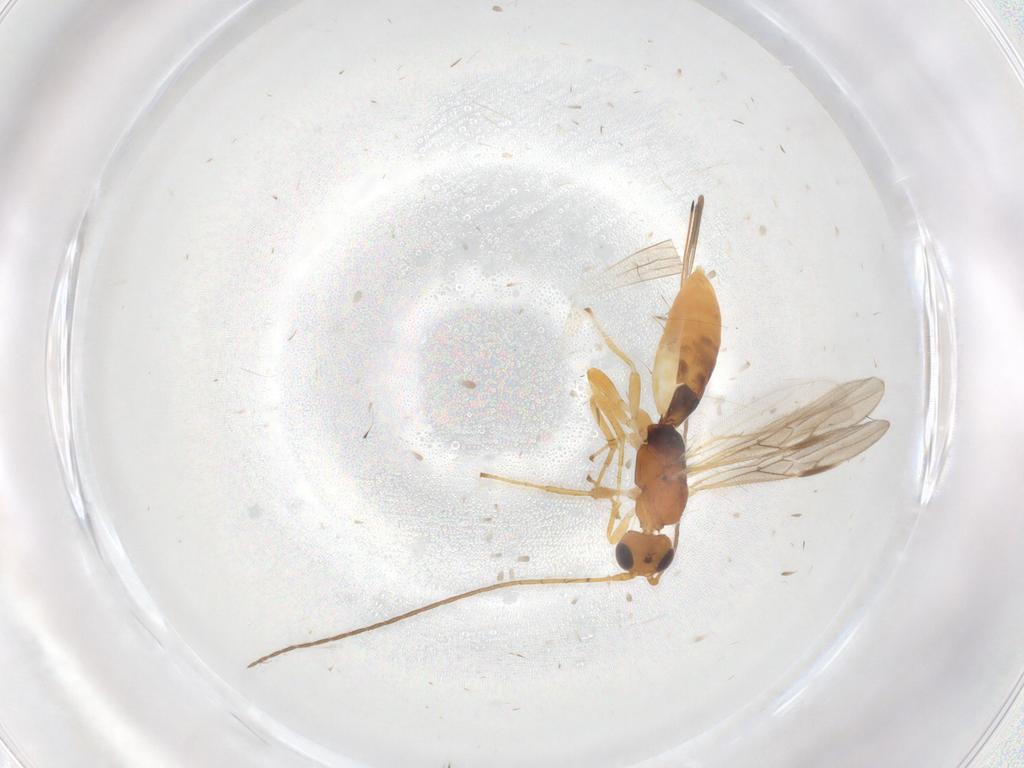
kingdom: Animalia
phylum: Arthropoda
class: Insecta
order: Hymenoptera
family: Braconidae
